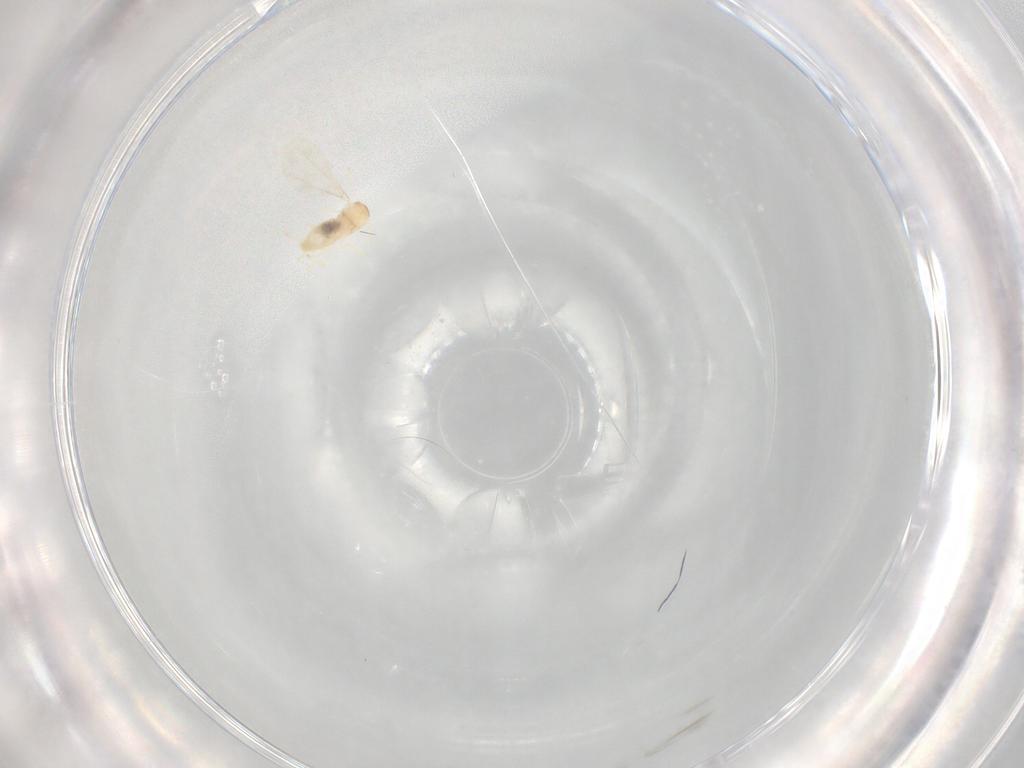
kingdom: Animalia
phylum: Arthropoda
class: Insecta
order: Diptera
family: Cecidomyiidae
